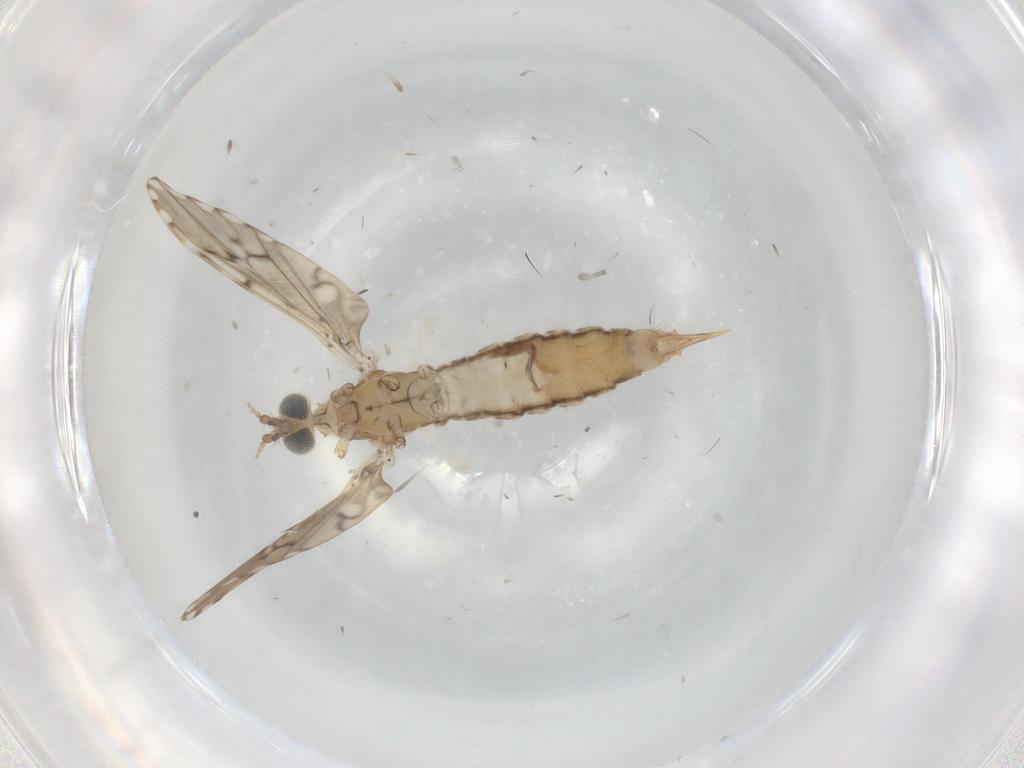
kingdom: Animalia
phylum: Arthropoda
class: Insecta
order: Diptera
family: Limoniidae
